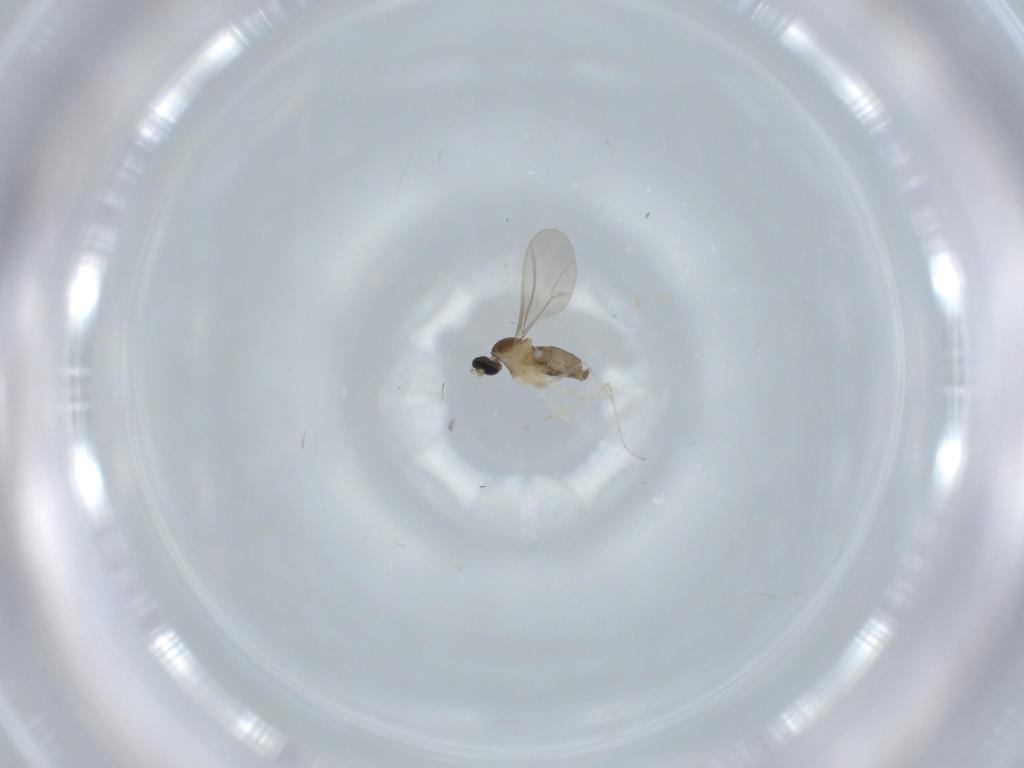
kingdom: Animalia
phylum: Arthropoda
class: Insecta
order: Diptera
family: Cecidomyiidae
